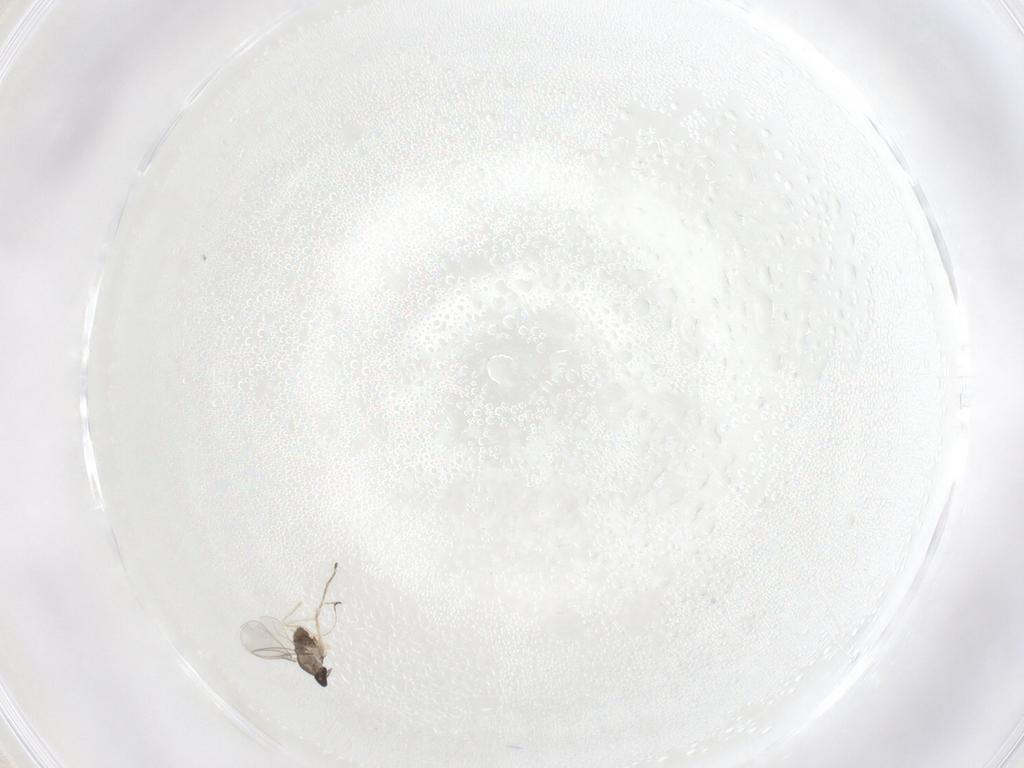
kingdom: Animalia
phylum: Arthropoda
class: Insecta
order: Diptera
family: Cecidomyiidae
